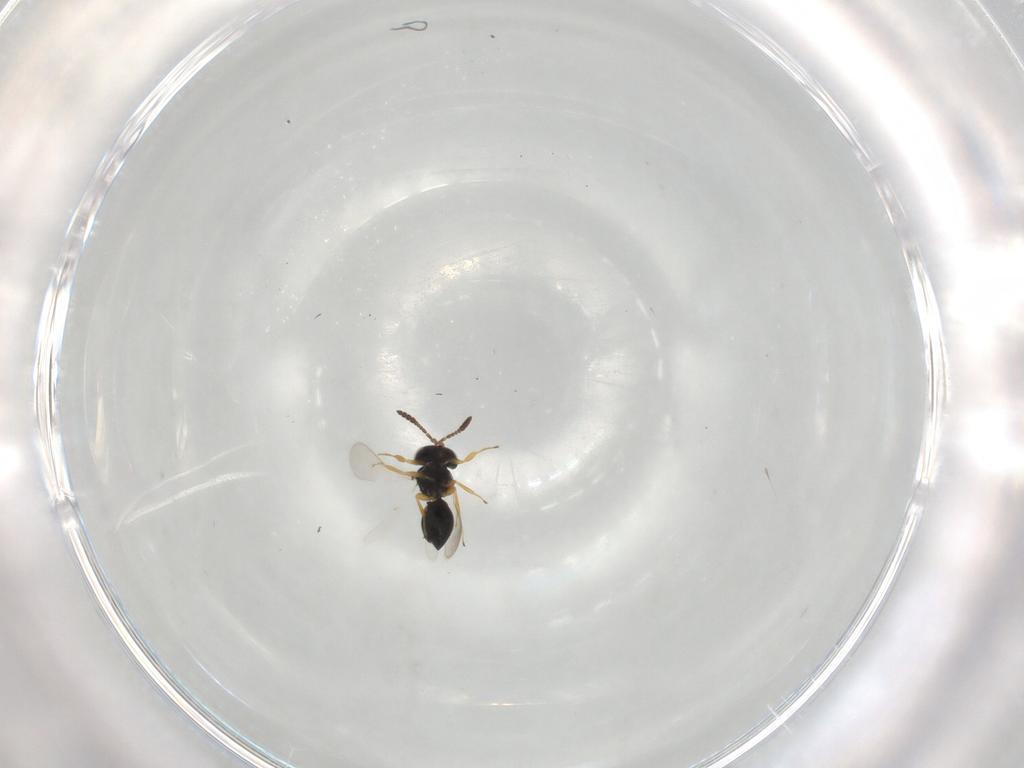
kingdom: Animalia
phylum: Arthropoda
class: Insecta
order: Hymenoptera
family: Scelionidae
